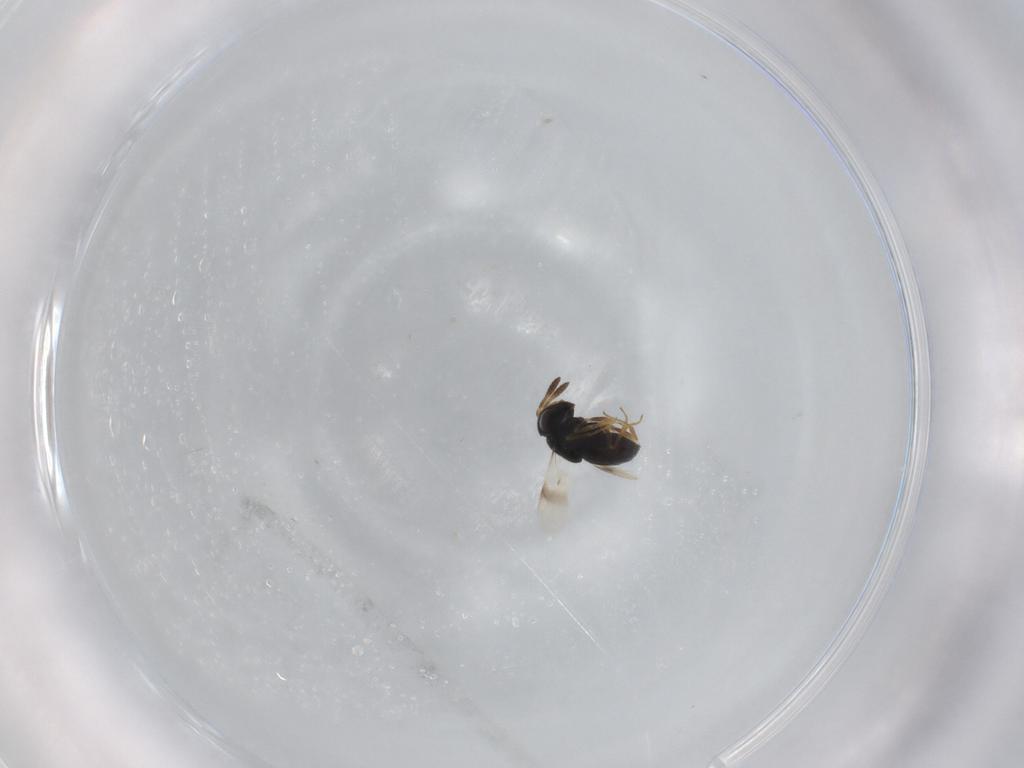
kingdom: Animalia
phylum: Arthropoda
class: Insecta
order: Hymenoptera
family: Scelionidae
